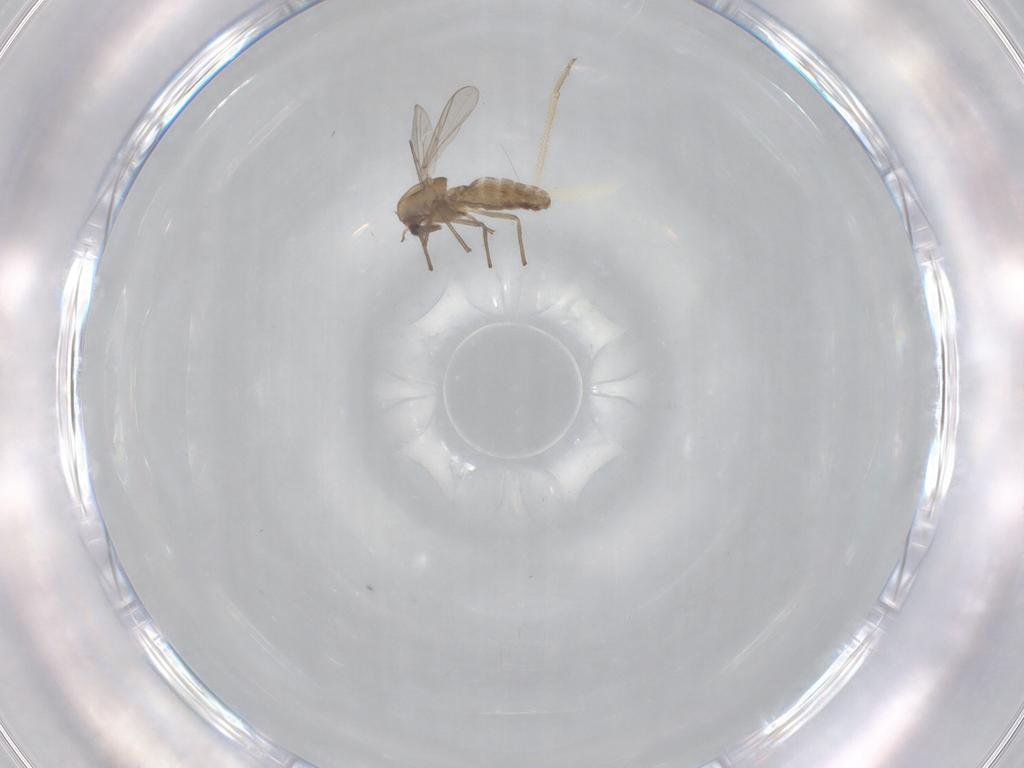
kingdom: Animalia
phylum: Arthropoda
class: Insecta
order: Diptera
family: Chironomidae
